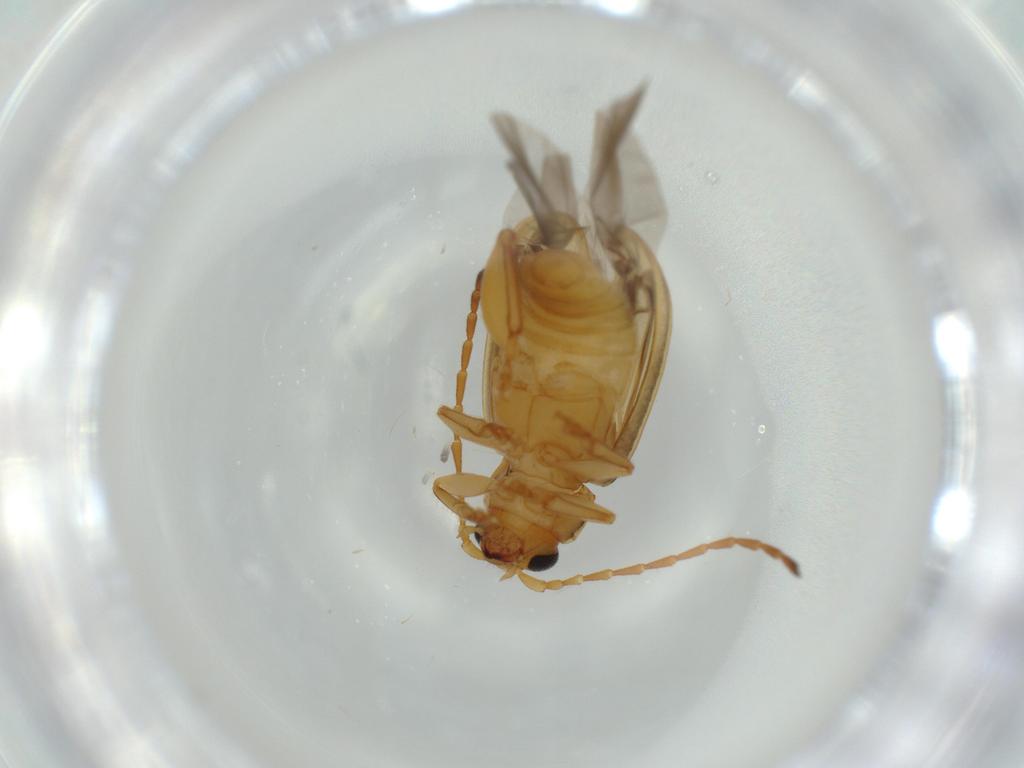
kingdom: Animalia
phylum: Arthropoda
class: Insecta
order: Coleoptera
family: Chrysomelidae
